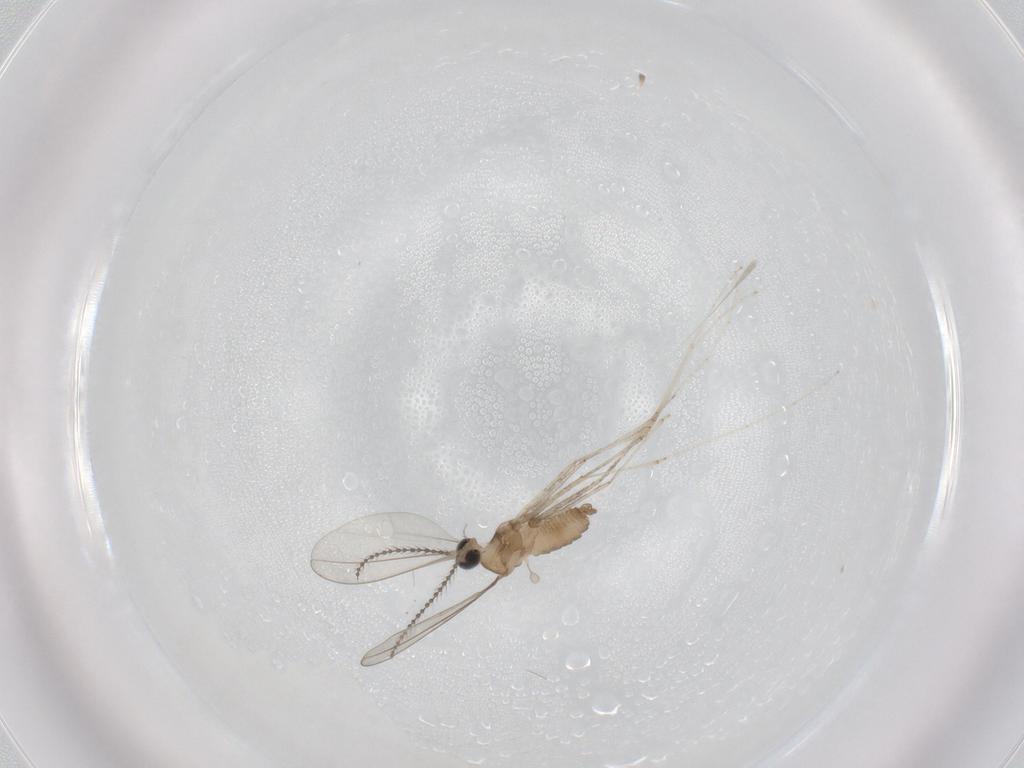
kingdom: Animalia
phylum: Arthropoda
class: Insecta
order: Diptera
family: Cecidomyiidae
